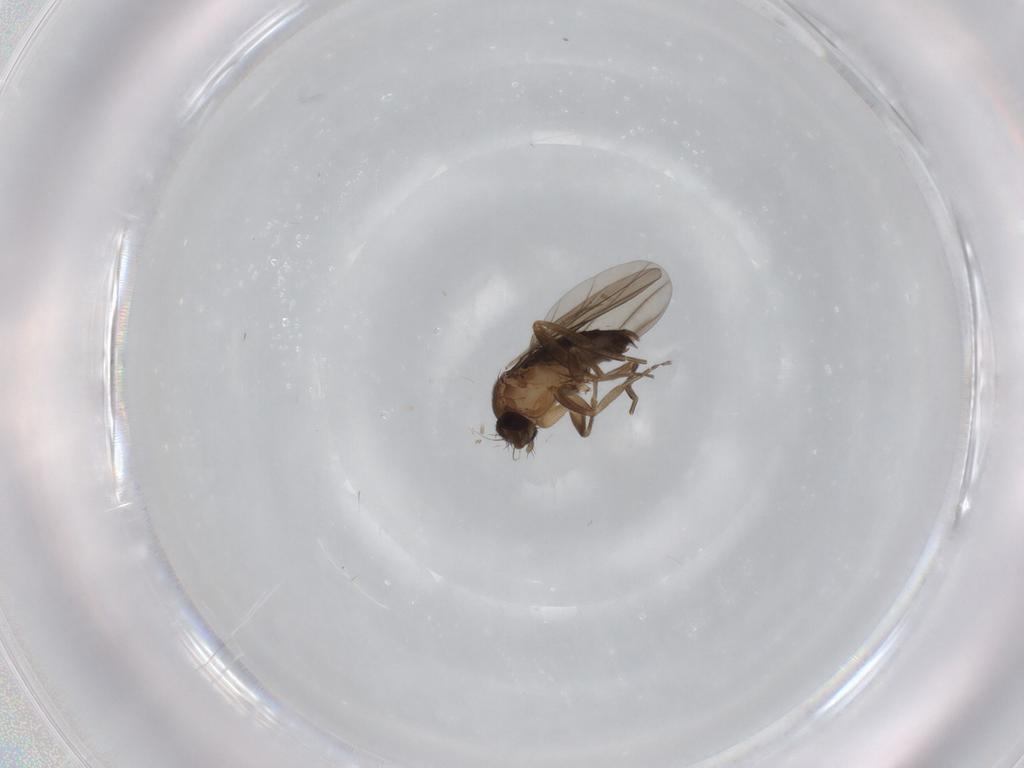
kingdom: Animalia
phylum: Arthropoda
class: Insecta
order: Diptera
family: Phoridae
